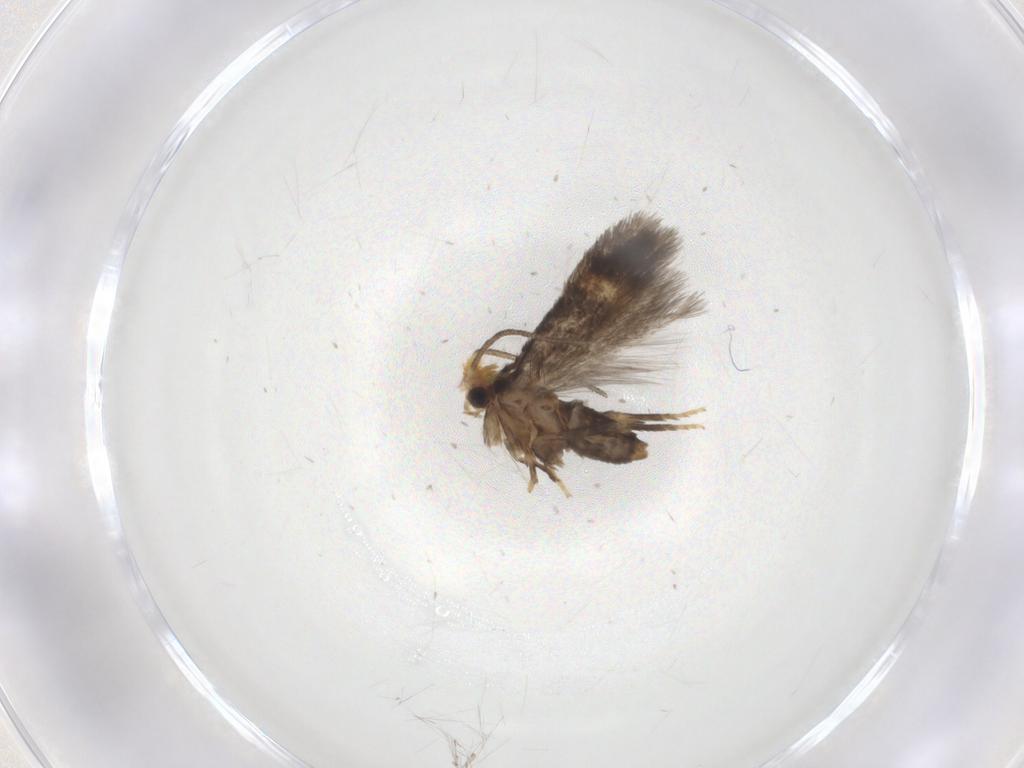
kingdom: Animalia
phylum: Arthropoda
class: Insecta
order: Lepidoptera
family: Nepticulidae
